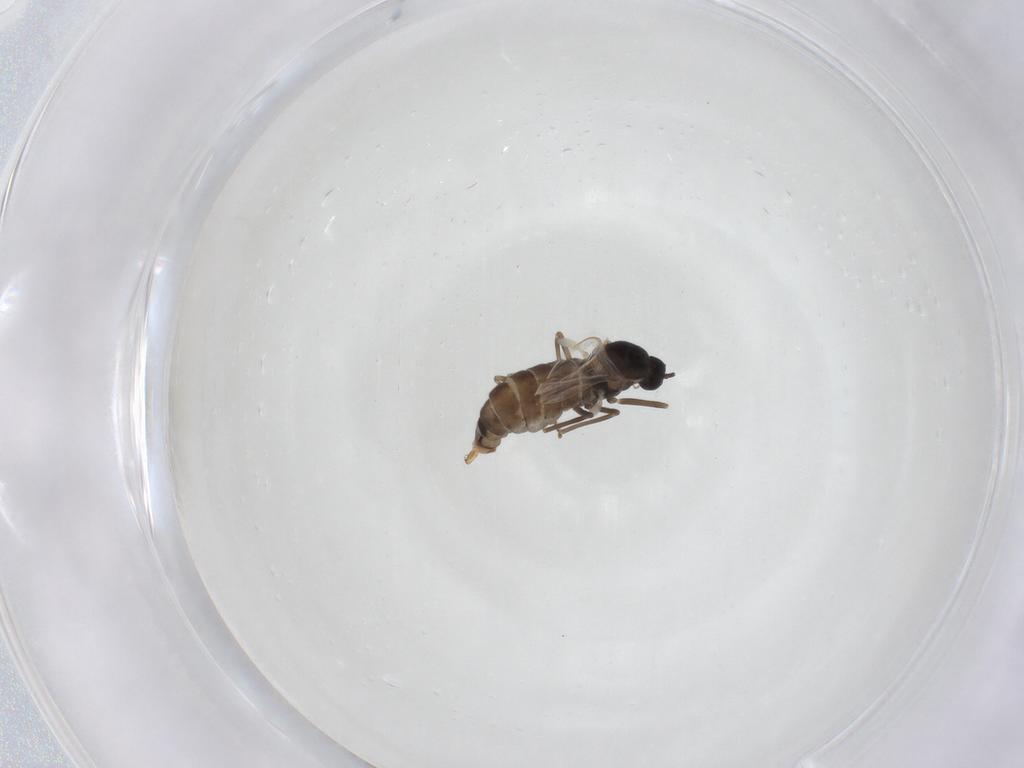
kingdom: Animalia
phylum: Arthropoda
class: Insecta
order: Diptera
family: Cecidomyiidae
